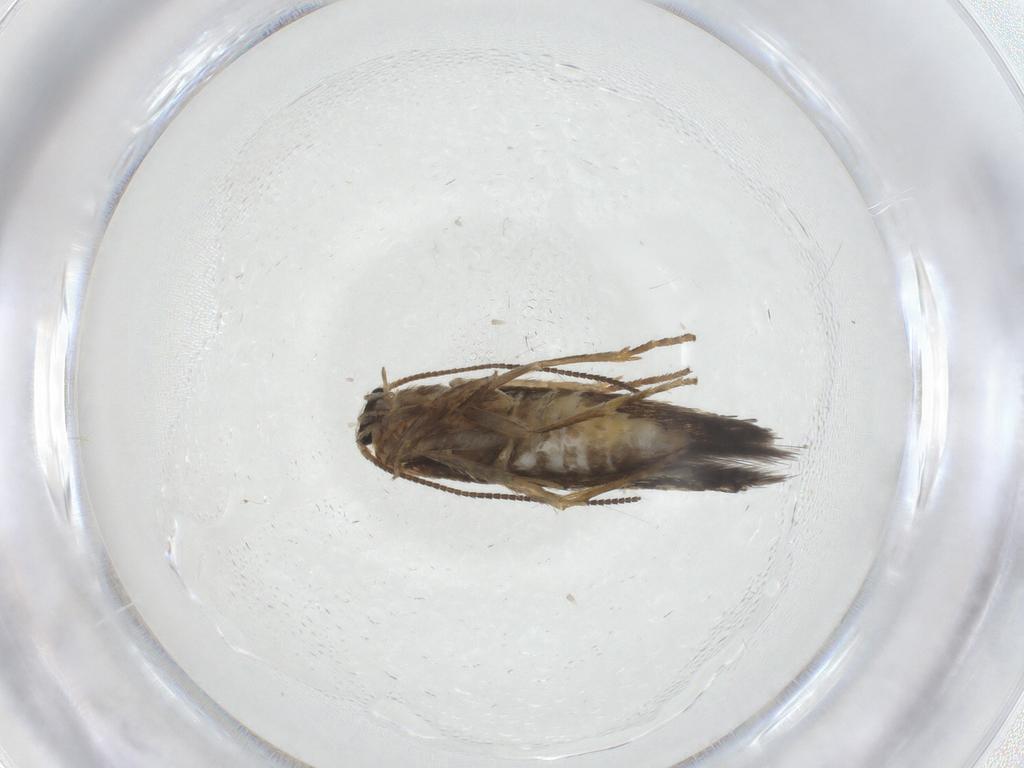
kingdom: Animalia
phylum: Arthropoda
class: Insecta
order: Lepidoptera
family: Nepticulidae
